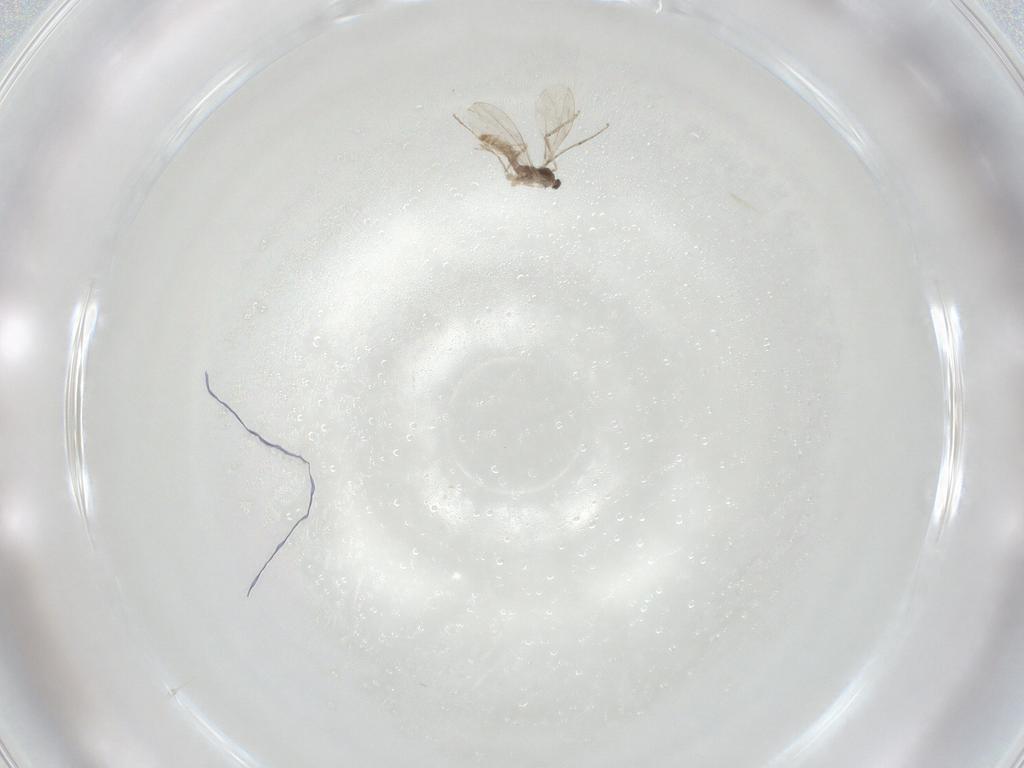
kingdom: Animalia
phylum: Arthropoda
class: Insecta
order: Diptera
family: Cecidomyiidae
